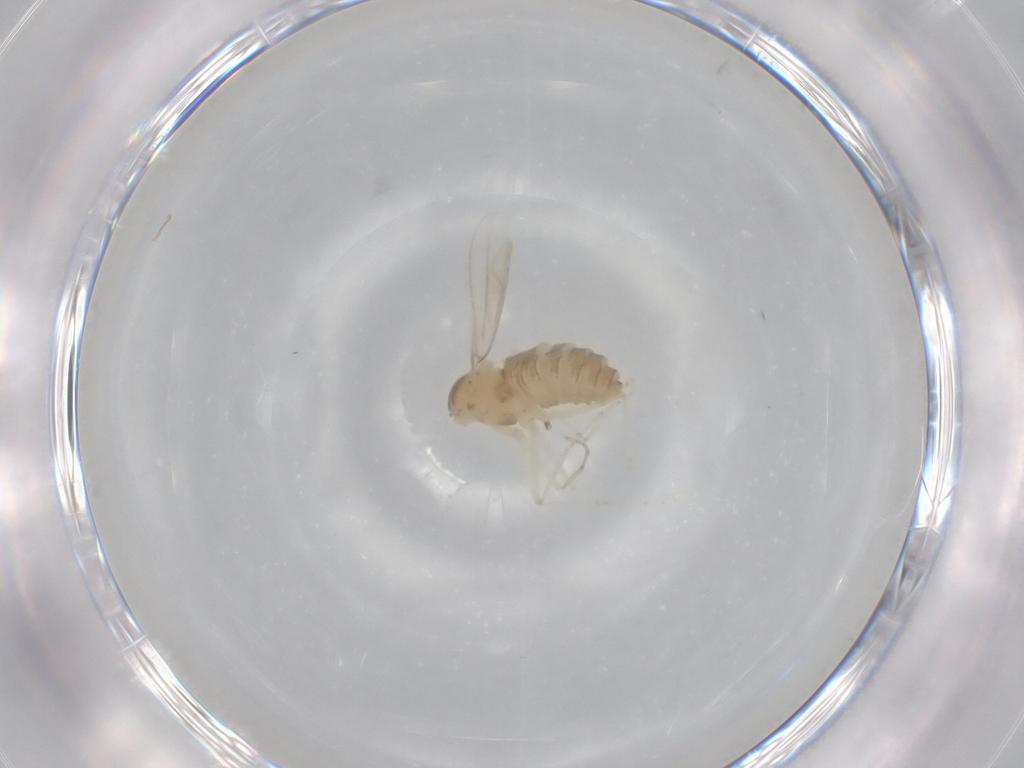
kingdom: Animalia
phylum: Arthropoda
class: Insecta
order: Diptera
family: Cecidomyiidae
